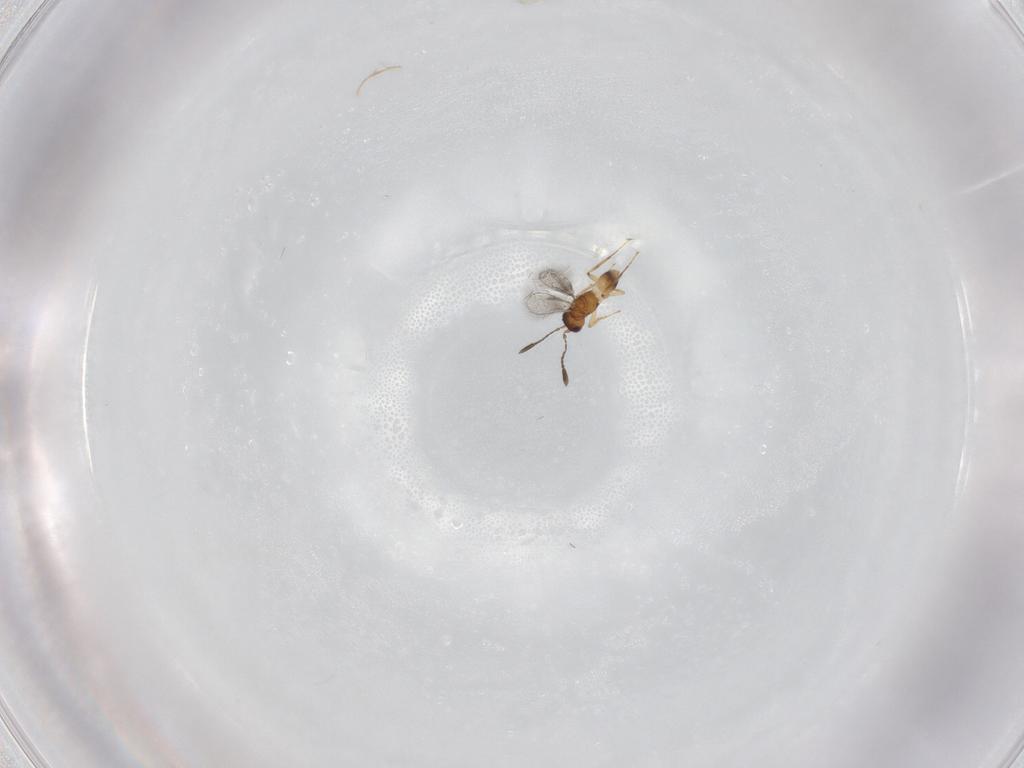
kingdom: Animalia
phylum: Arthropoda
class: Insecta
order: Hymenoptera
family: Mymaridae
